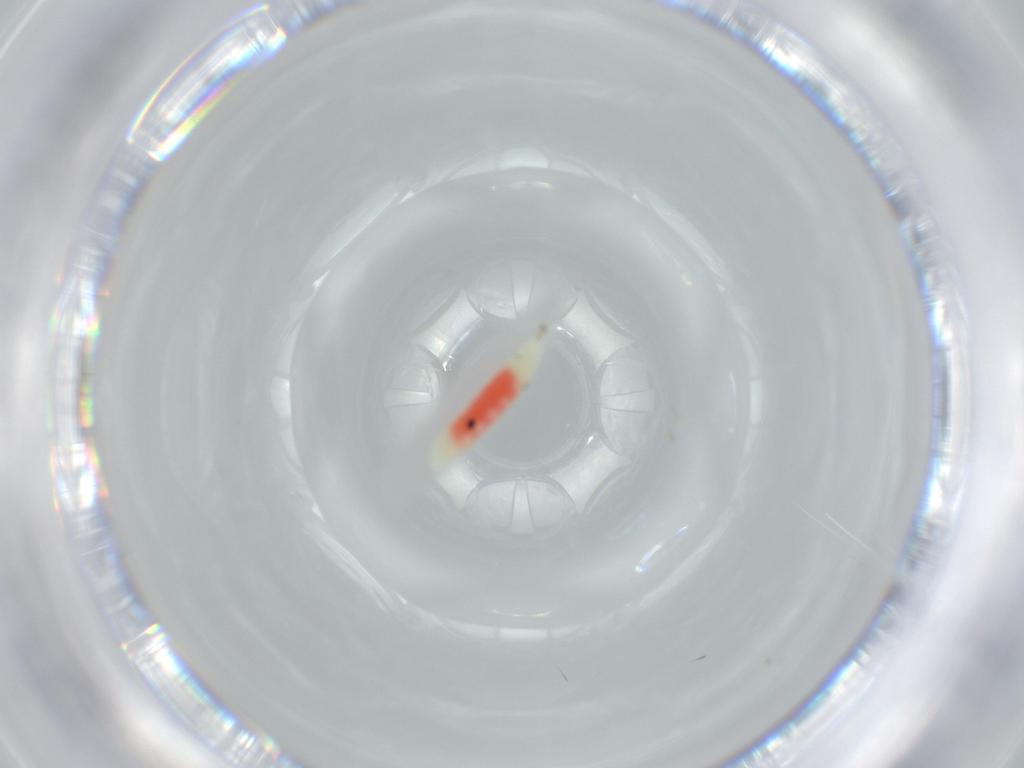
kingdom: Animalia
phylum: Arthropoda
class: Insecta
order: Diptera
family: Cecidomyiidae
